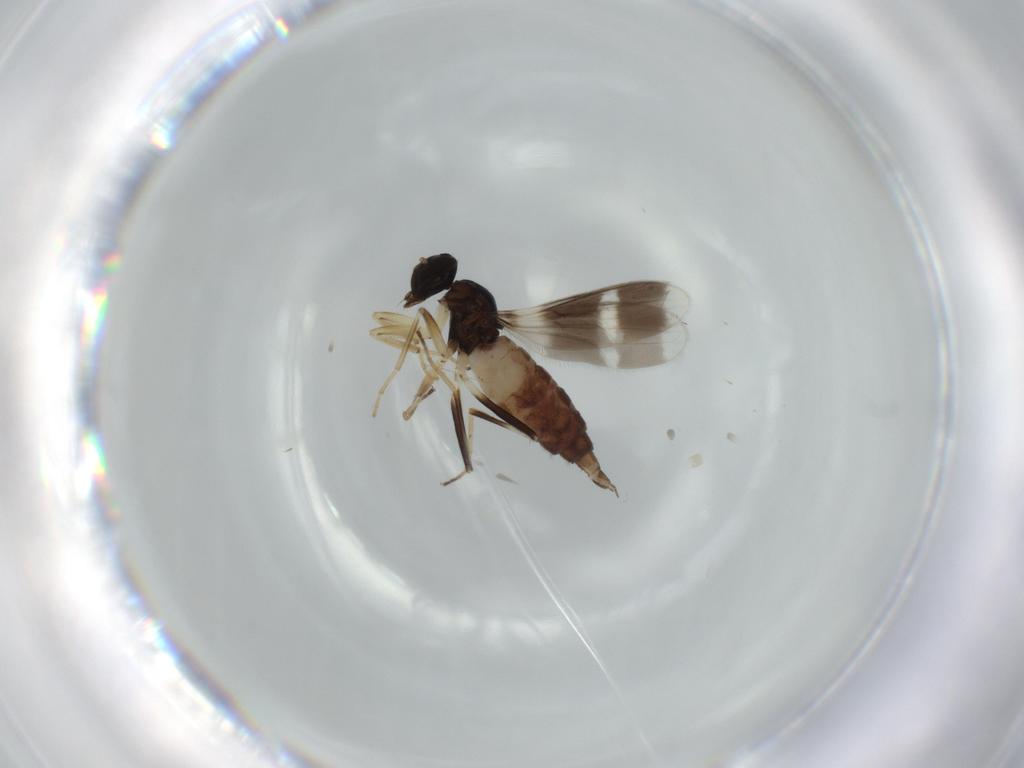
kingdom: Animalia
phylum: Arthropoda
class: Insecta
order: Diptera
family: Hybotidae
